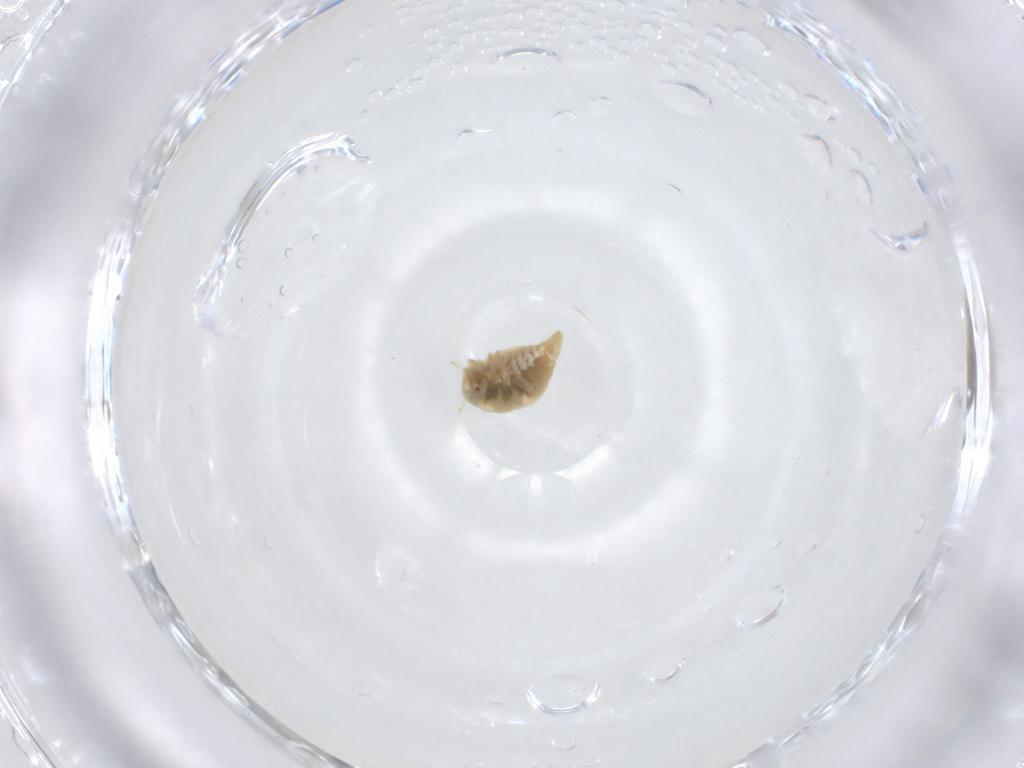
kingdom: Animalia
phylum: Arthropoda
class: Insecta
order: Neuroptera
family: Coniopterygidae
